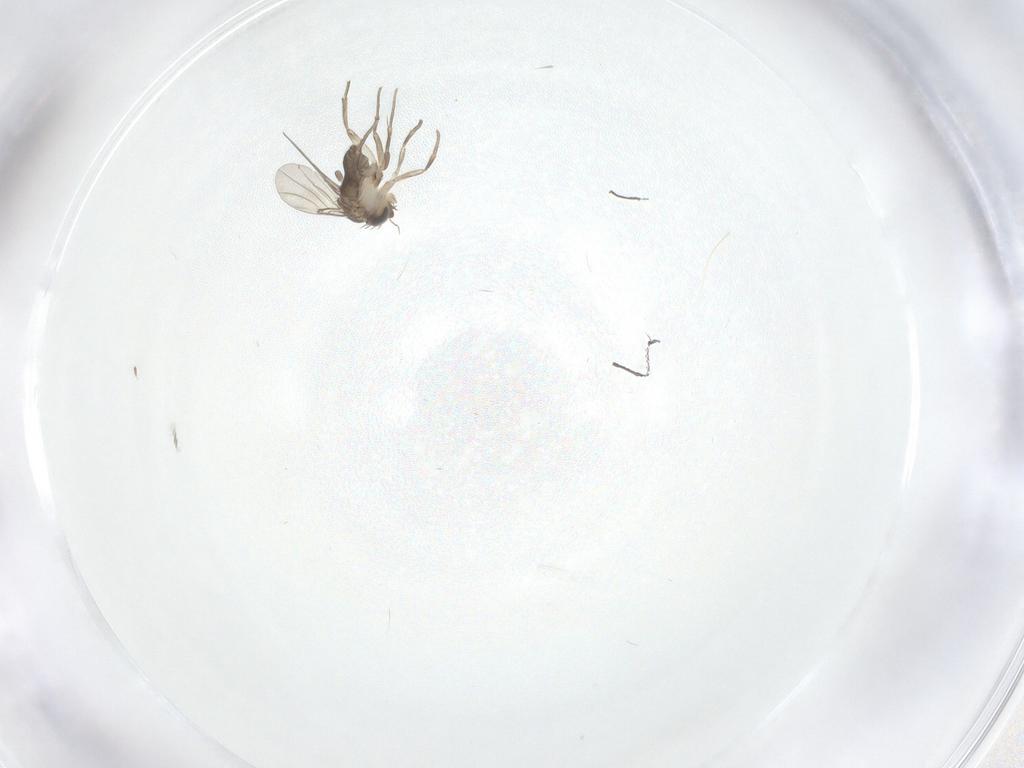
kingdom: Animalia
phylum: Arthropoda
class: Insecta
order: Diptera
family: Phoridae
